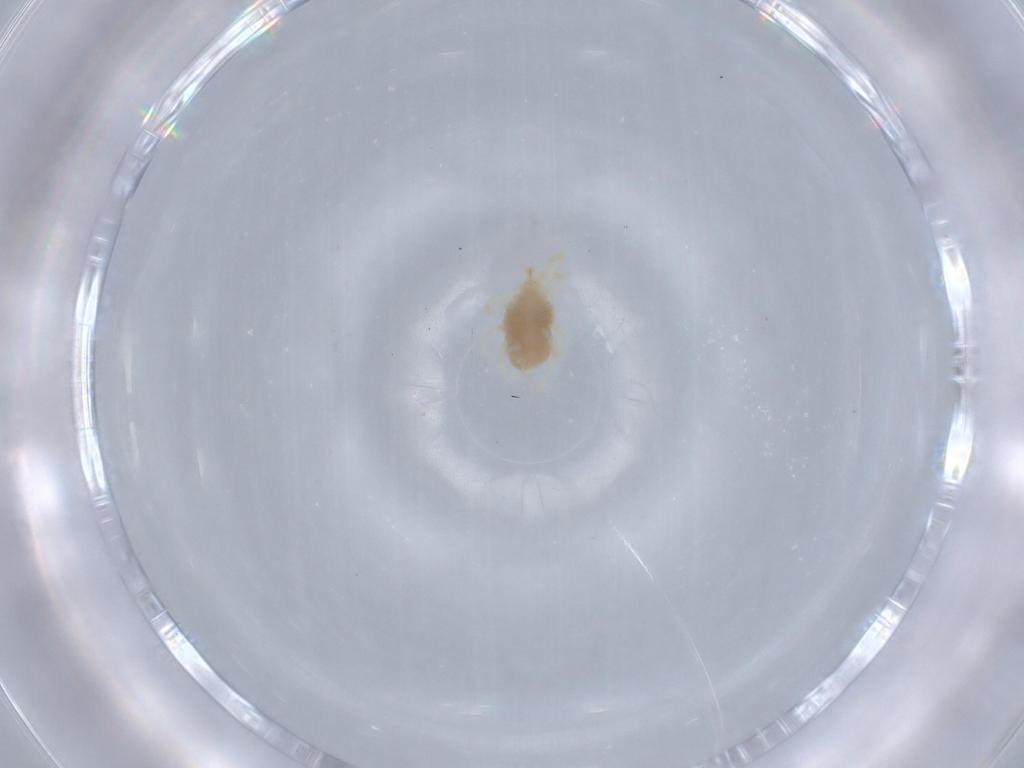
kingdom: Animalia
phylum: Arthropoda
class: Arachnida
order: Trombidiformes
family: Erythraeidae
